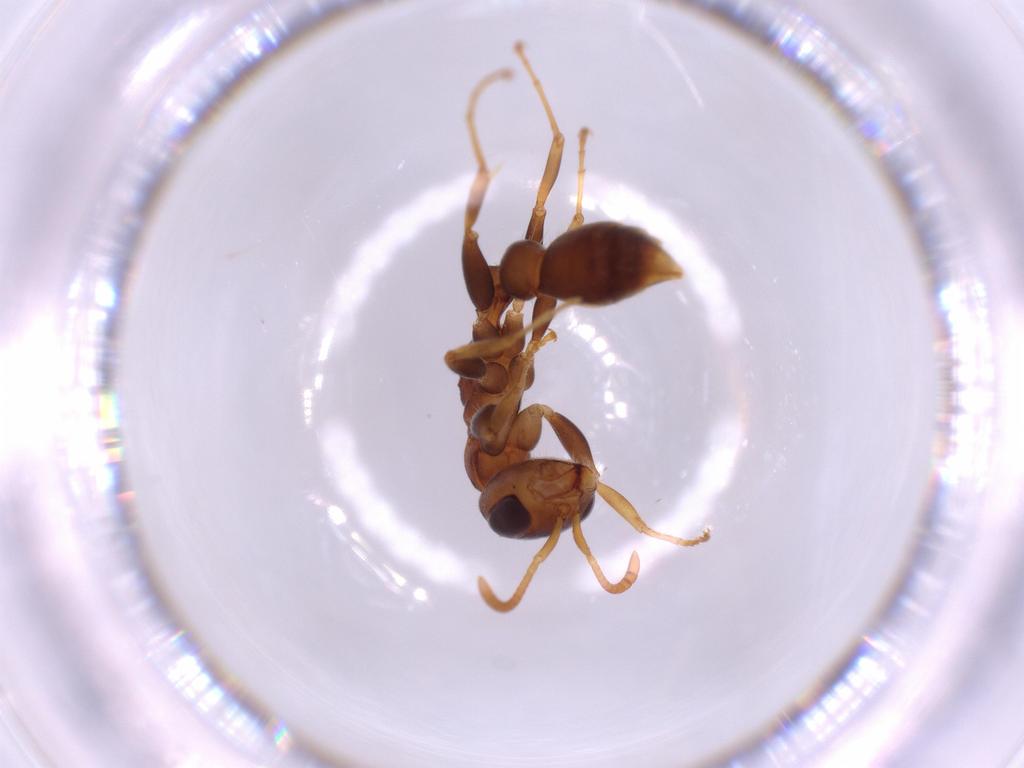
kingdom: Animalia
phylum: Arthropoda
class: Insecta
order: Hymenoptera
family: Formicidae
